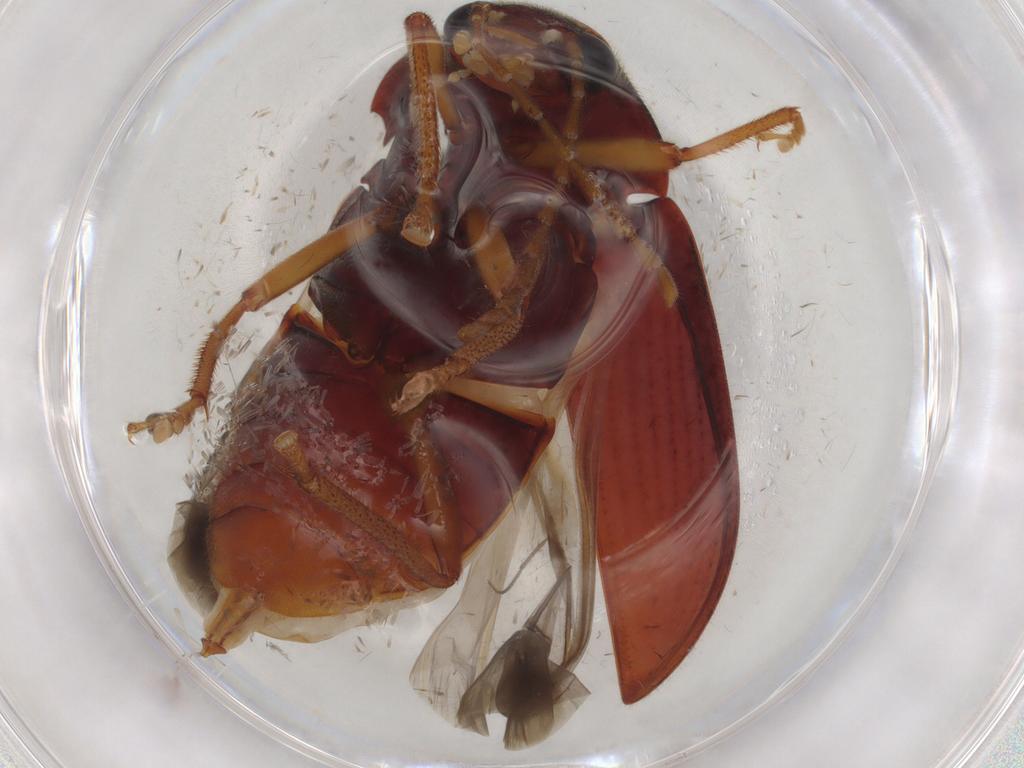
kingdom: Animalia
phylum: Arthropoda
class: Insecta
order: Coleoptera
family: Ptilodactylidae
